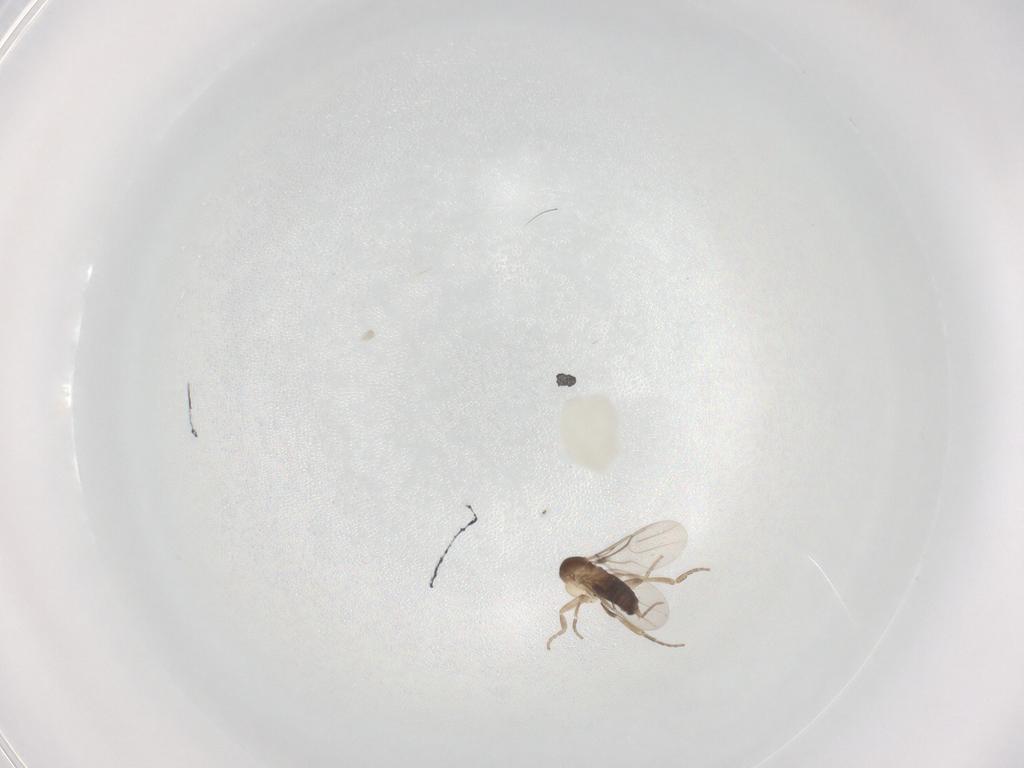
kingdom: Animalia
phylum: Arthropoda
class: Insecta
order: Diptera
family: Phoridae
